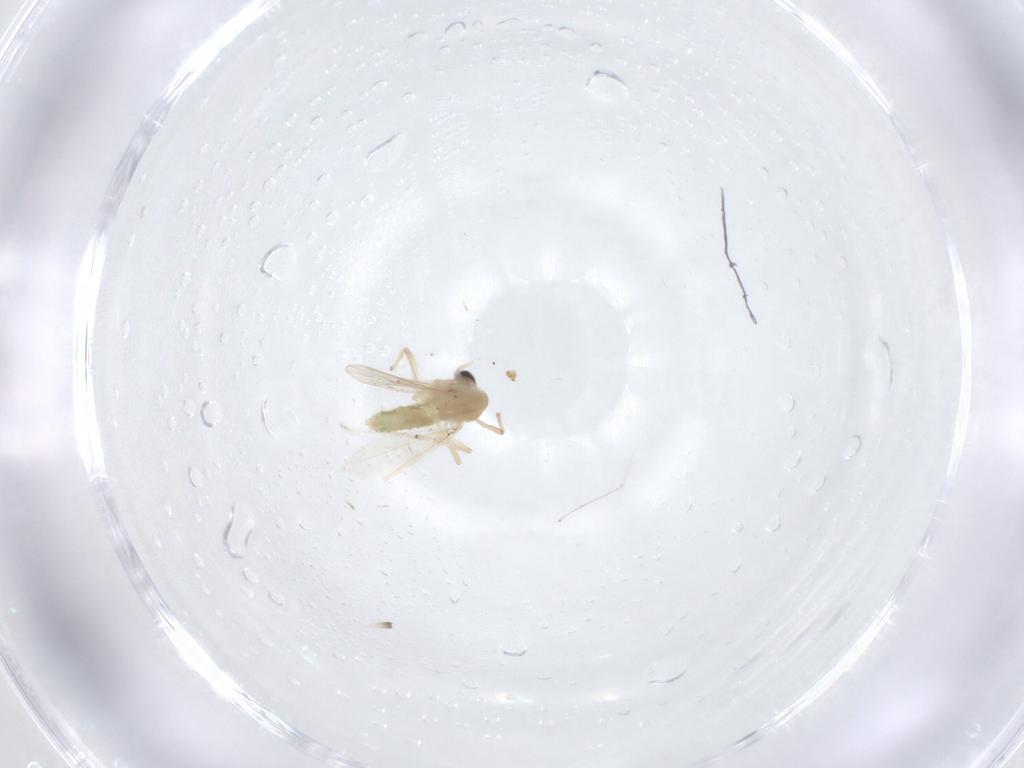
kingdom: Animalia
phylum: Arthropoda
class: Insecta
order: Diptera
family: Chironomidae
